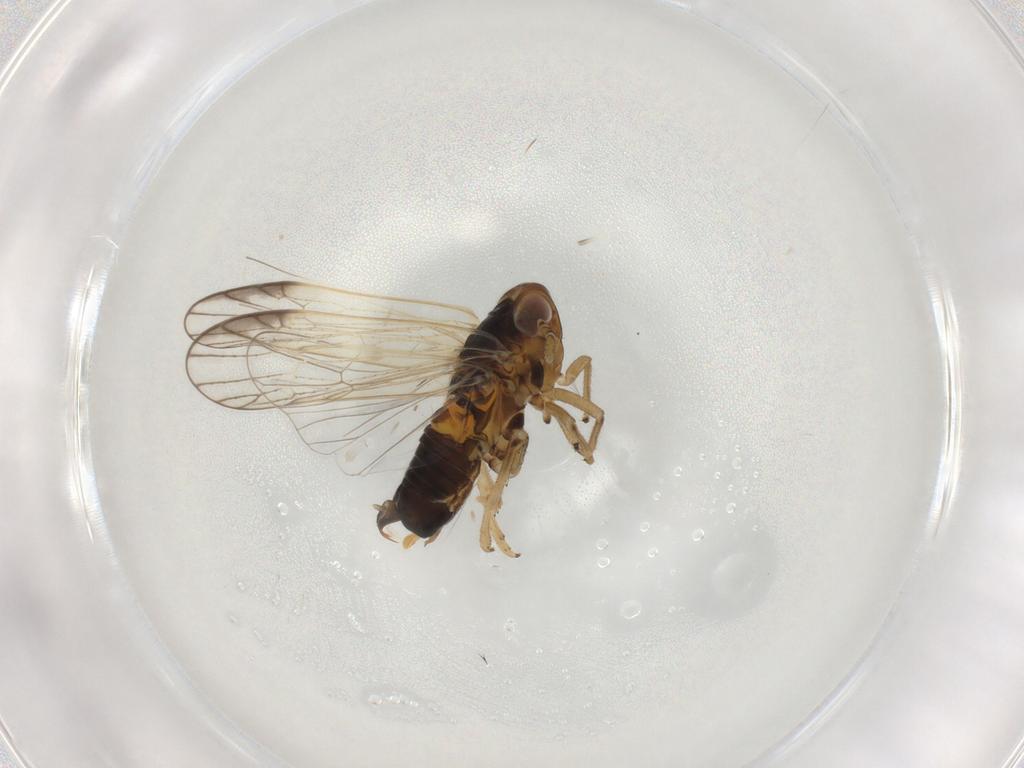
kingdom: Animalia
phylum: Arthropoda
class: Insecta
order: Hemiptera
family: Delphacidae
